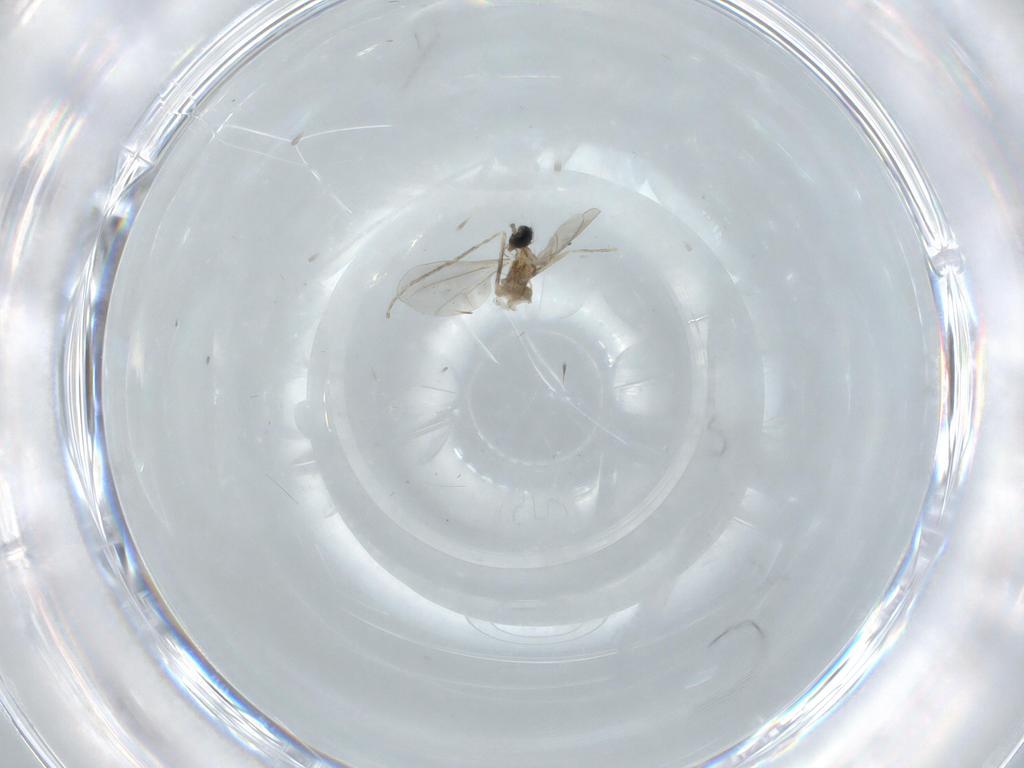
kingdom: Animalia
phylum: Arthropoda
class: Insecta
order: Diptera
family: Cecidomyiidae
